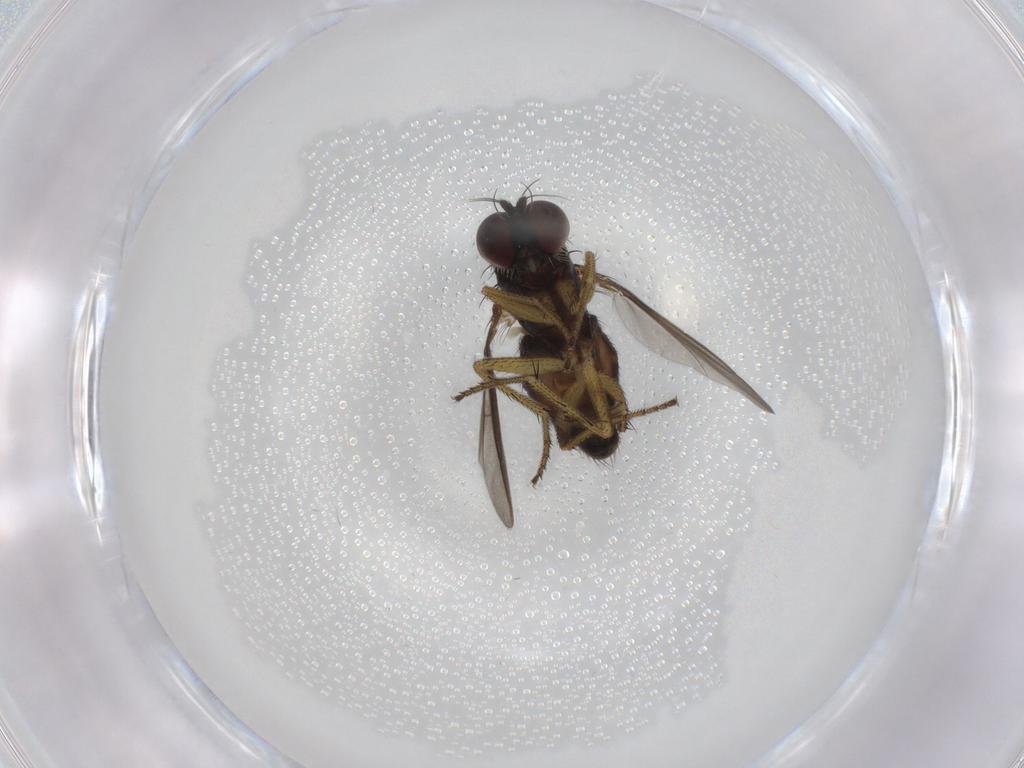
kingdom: Animalia
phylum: Arthropoda
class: Insecta
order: Diptera
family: Dolichopodidae
